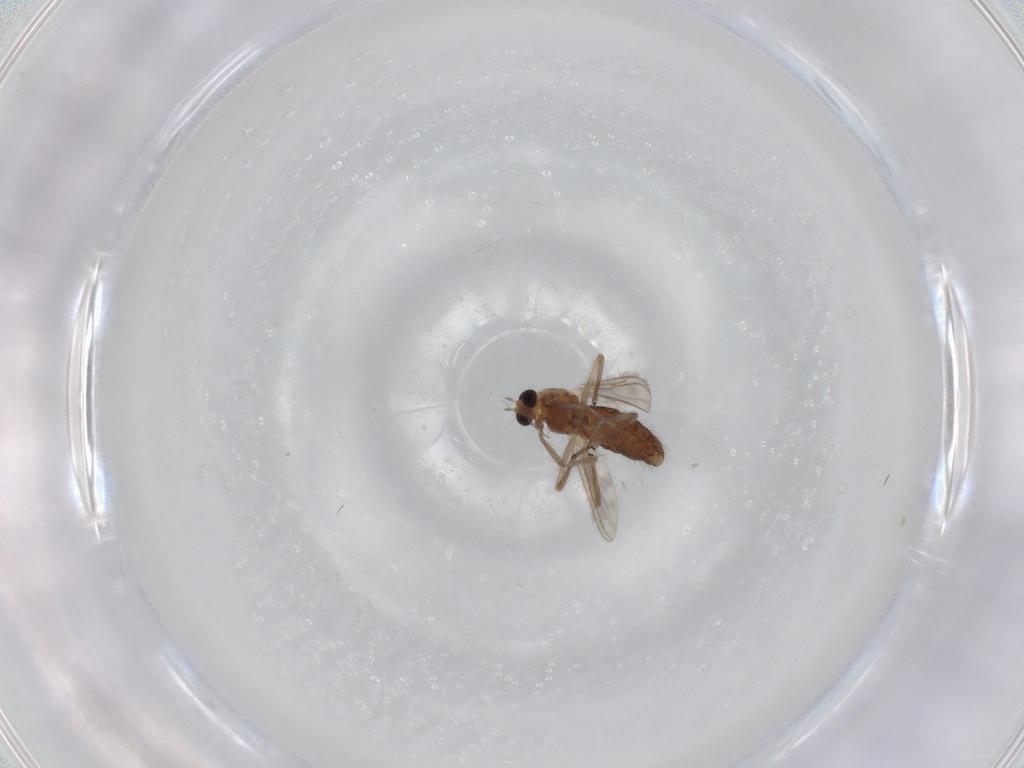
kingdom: Animalia
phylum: Arthropoda
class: Insecta
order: Diptera
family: Chironomidae
